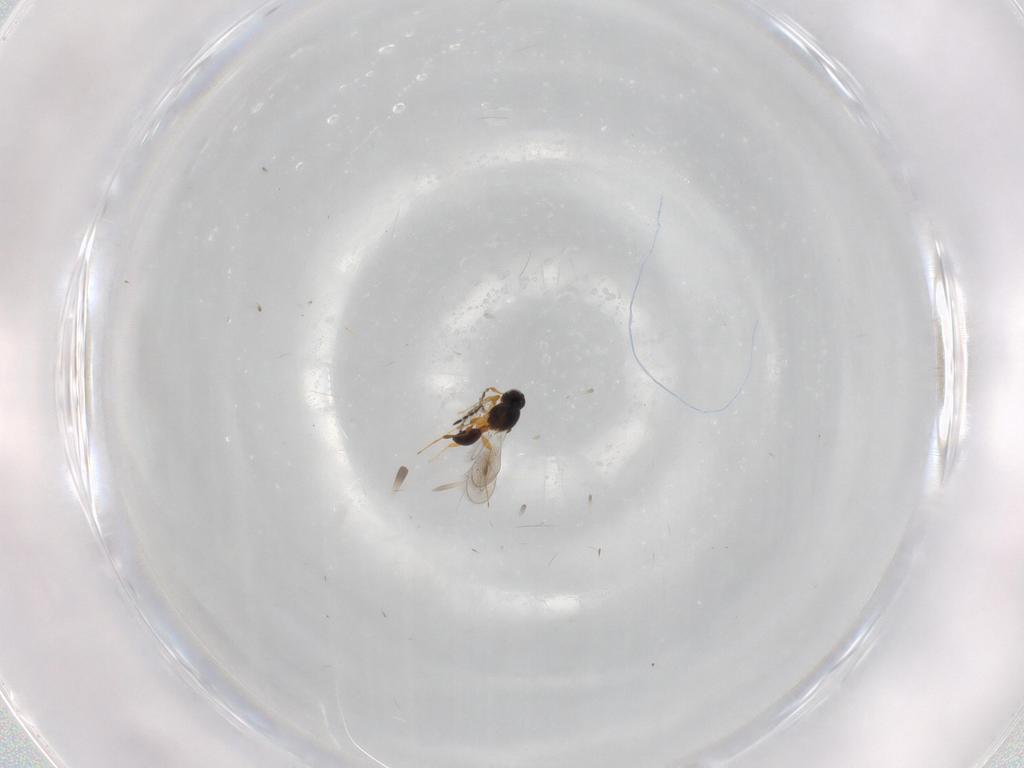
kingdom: Animalia
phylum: Arthropoda
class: Insecta
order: Hymenoptera
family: Platygastridae
